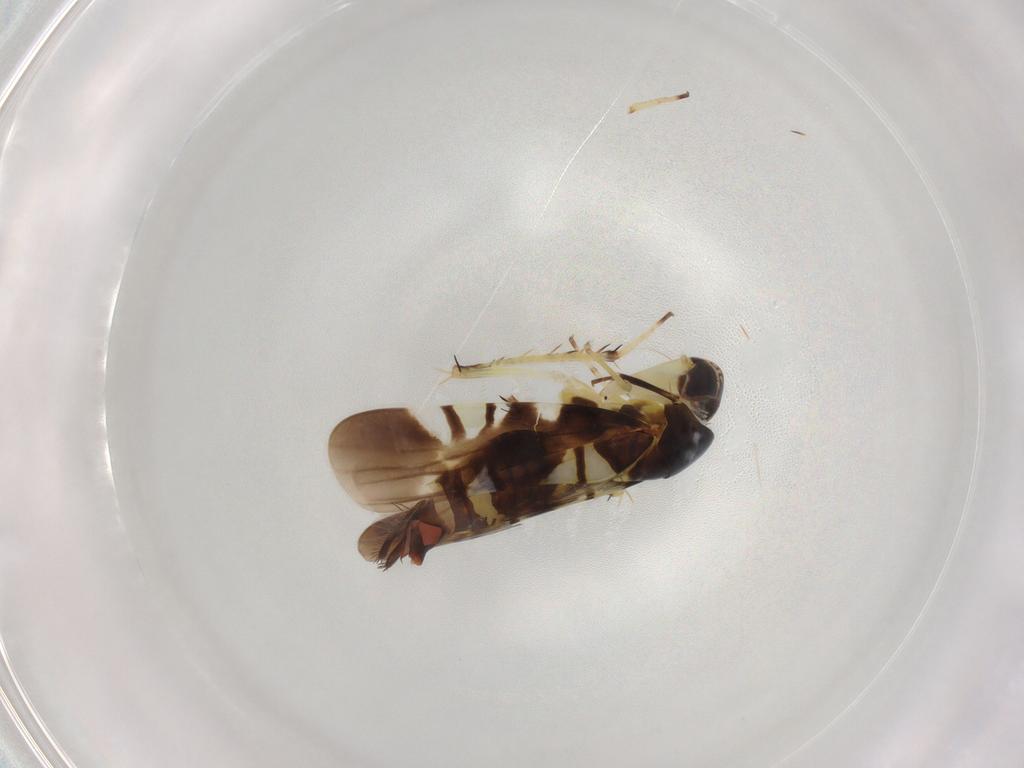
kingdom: Animalia
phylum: Arthropoda
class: Insecta
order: Hemiptera
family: Cicadellidae
